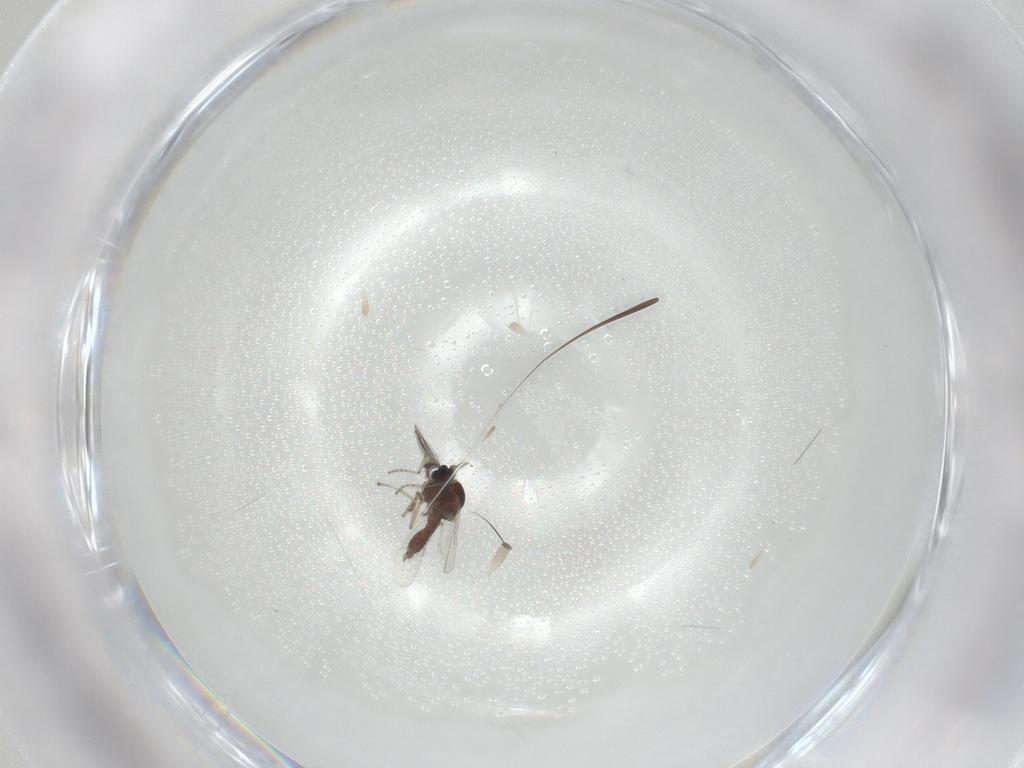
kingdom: Animalia
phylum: Arthropoda
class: Insecta
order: Diptera
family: Ceratopogonidae
